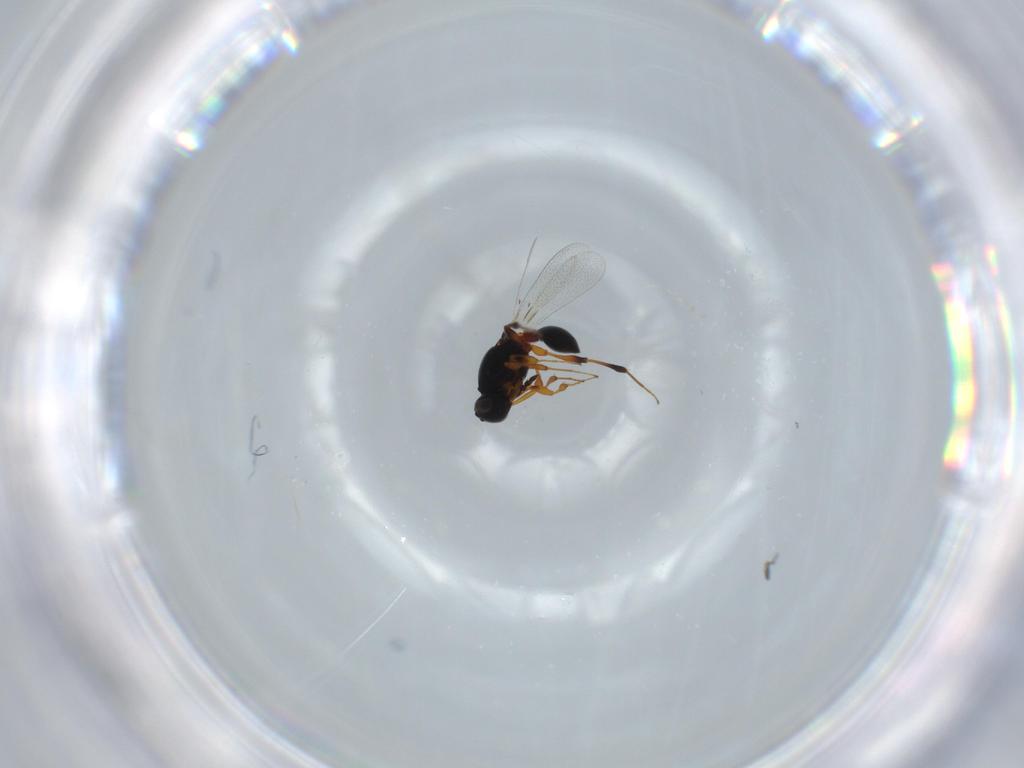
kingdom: Animalia
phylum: Arthropoda
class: Insecta
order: Hymenoptera
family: Platygastridae
